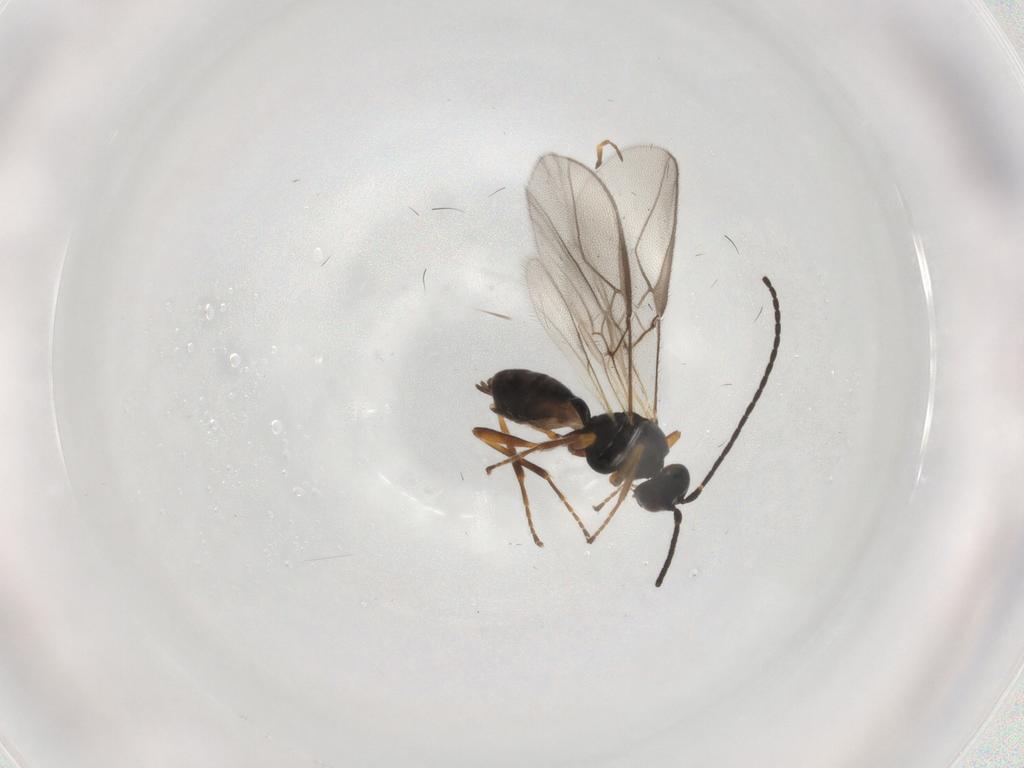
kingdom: Animalia
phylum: Arthropoda
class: Insecta
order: Hymenoptera
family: Braconidae
